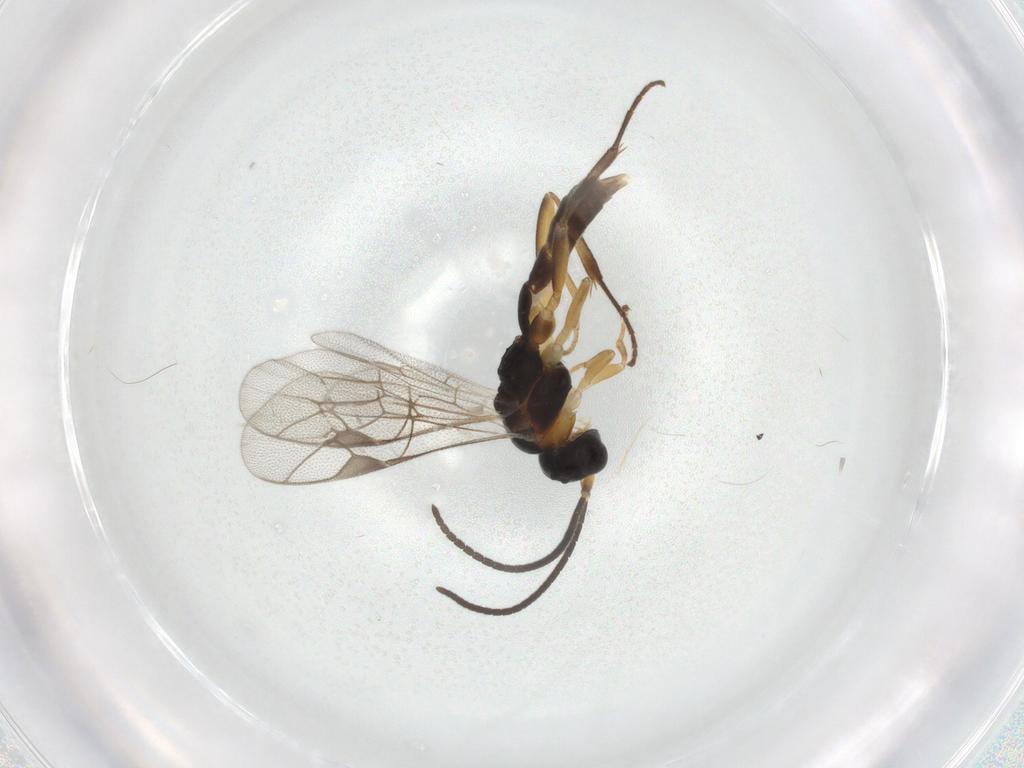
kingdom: Animalia
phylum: Arthropoda
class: Insecta
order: Hymenoptera
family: Ichneumonidae
